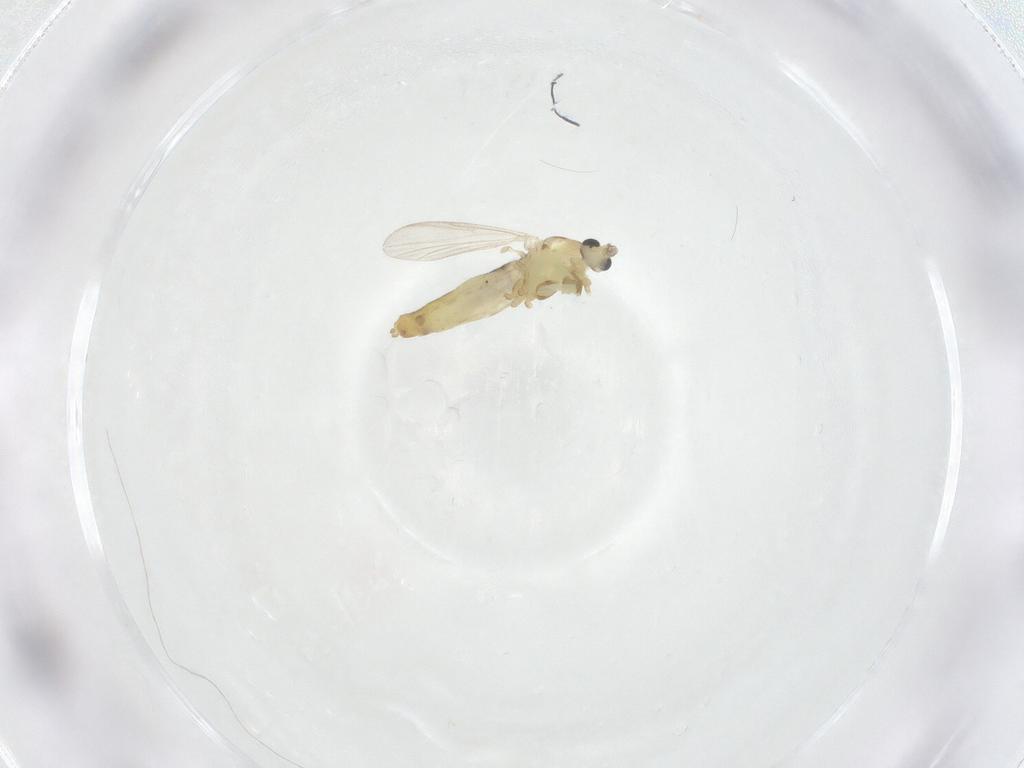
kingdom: Animalia
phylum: Arthropoda
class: Insecta
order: Diptera
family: Chironomidae
